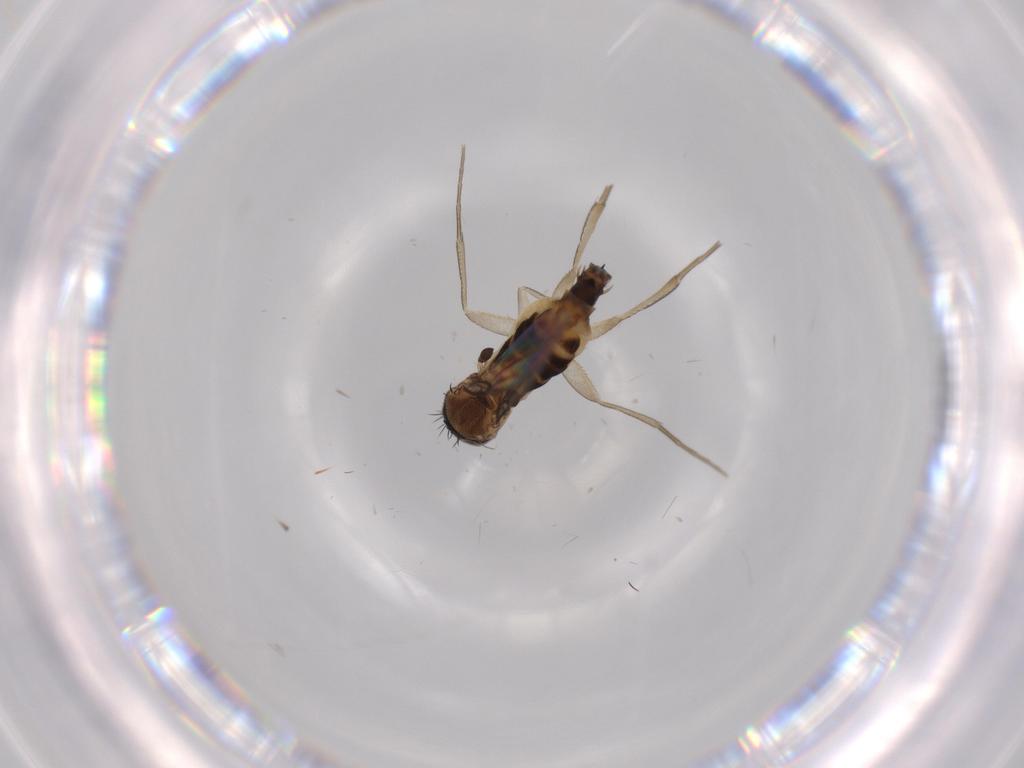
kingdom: Animalia
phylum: Arthropoda
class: Insecta
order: Diptera
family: Phoridae
